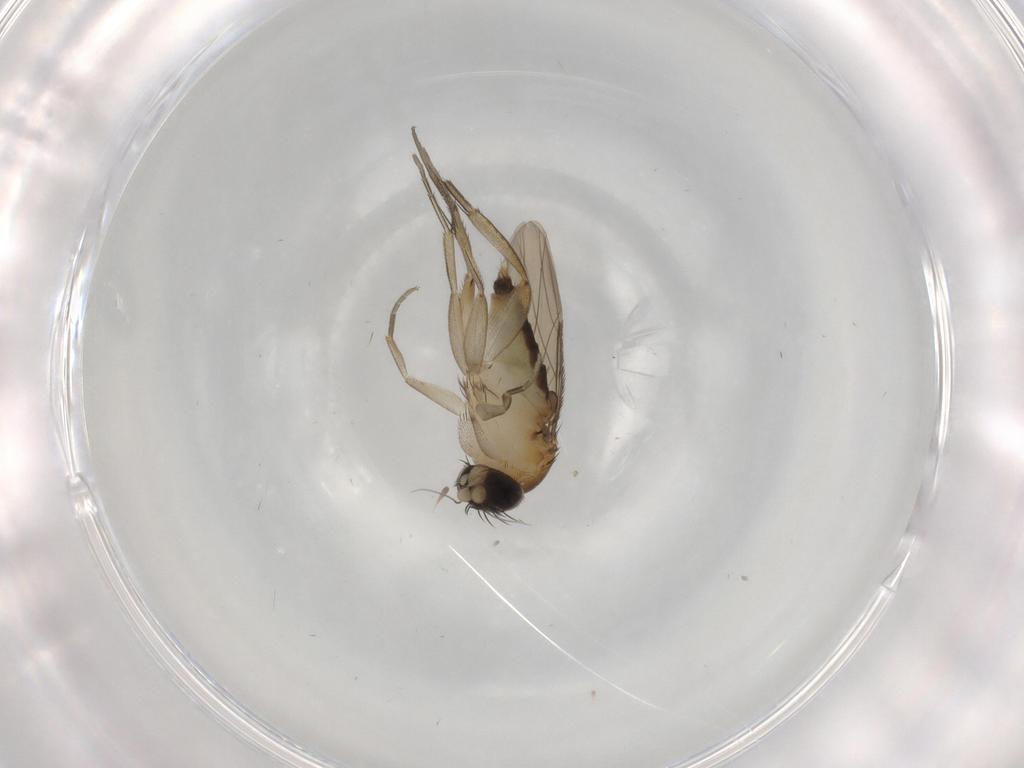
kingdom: Animalia
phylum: Arthropoda
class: Insecta
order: Diptera
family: Phoridae
